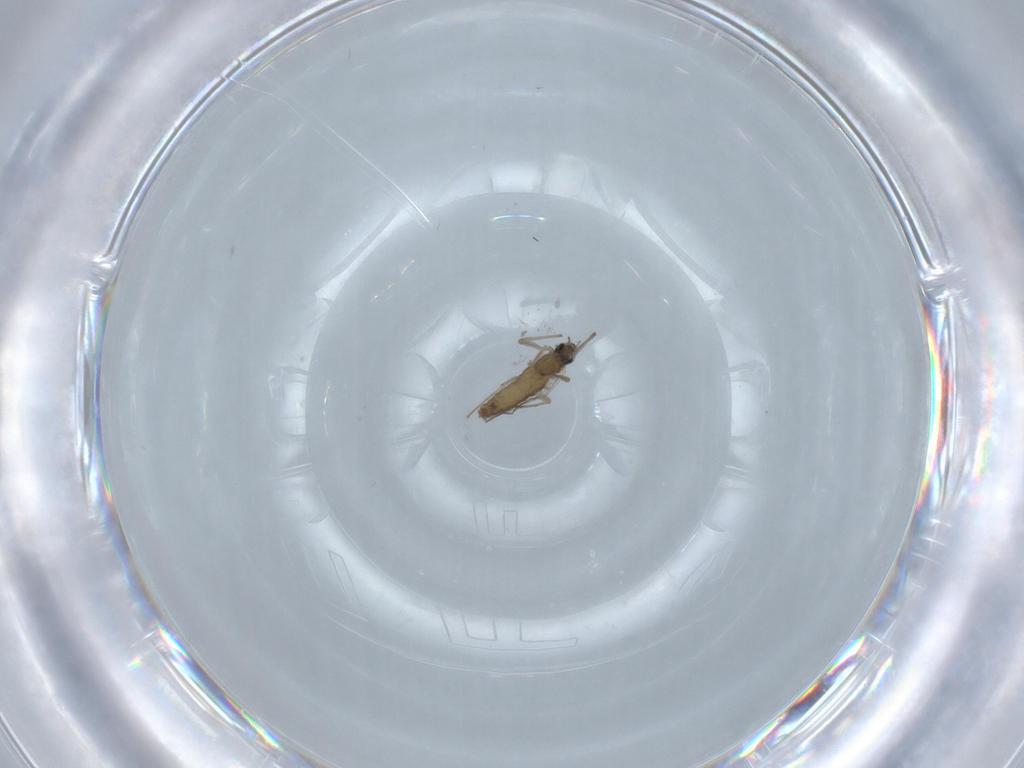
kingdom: Animalia
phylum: Arthropoda
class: Insecta
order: Diptera
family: Chironomidae
